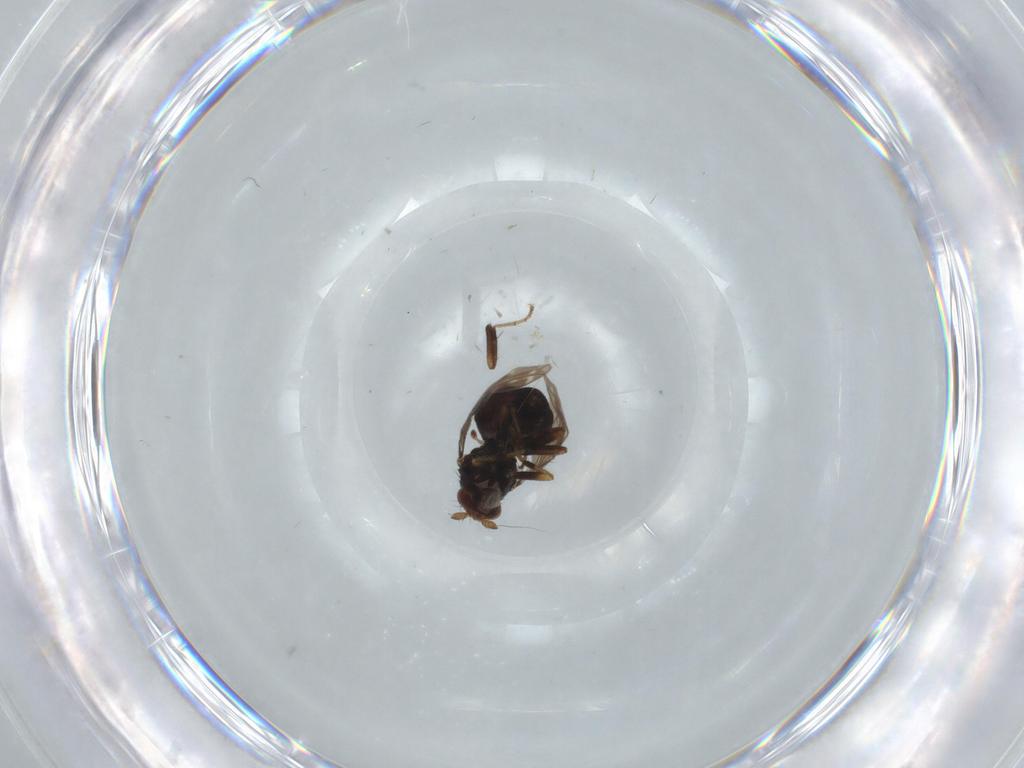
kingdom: Animalia
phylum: Arthropoda
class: Insecta
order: Diptera
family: Sphaeroceridae
